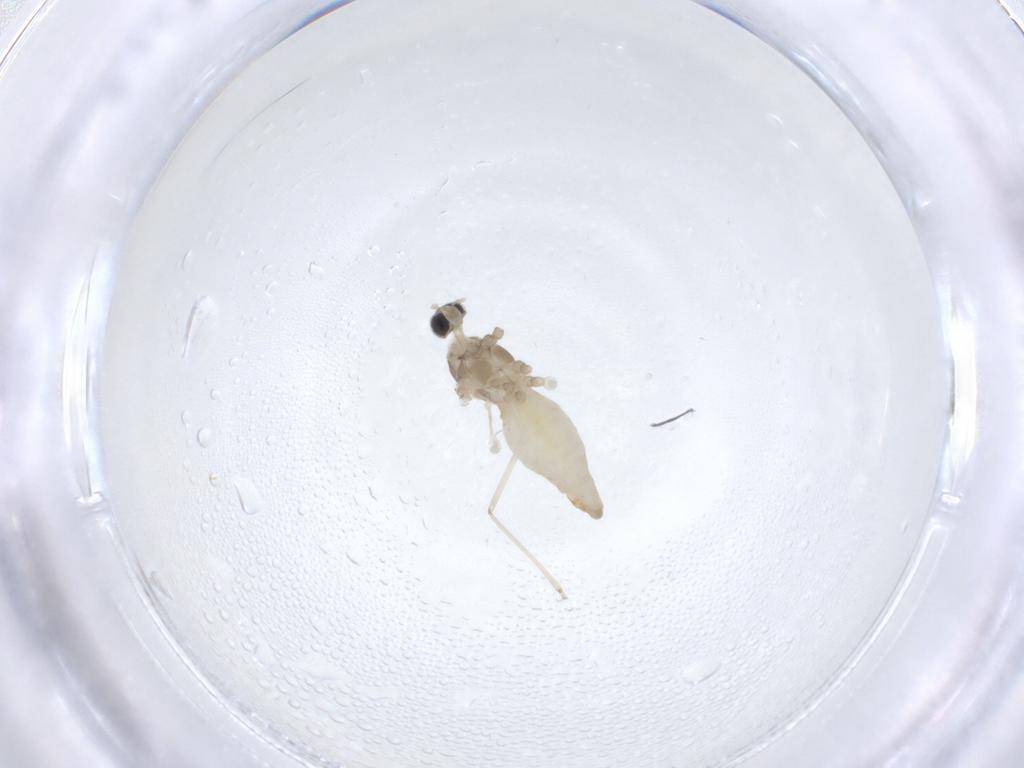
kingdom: Animalia
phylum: Arthropoda
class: Insecta
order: Diptera
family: Cecidomyiidae
